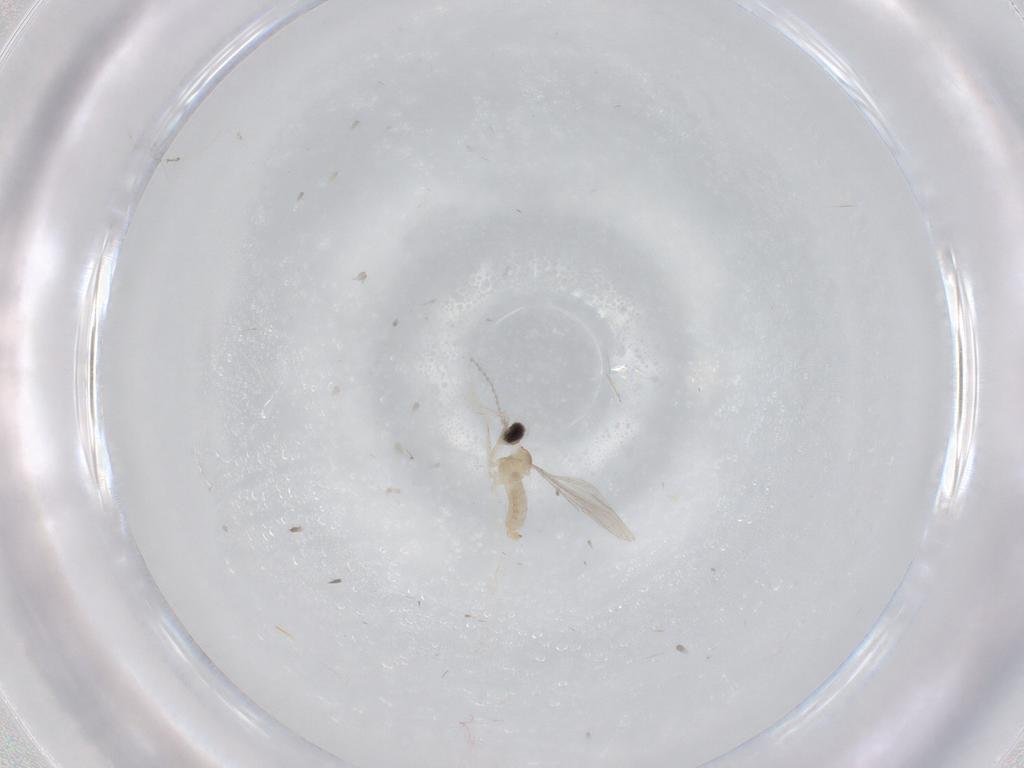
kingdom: Animalia
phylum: Arthropoda
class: Insecta
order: Diptera
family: Cecidomyiidae
